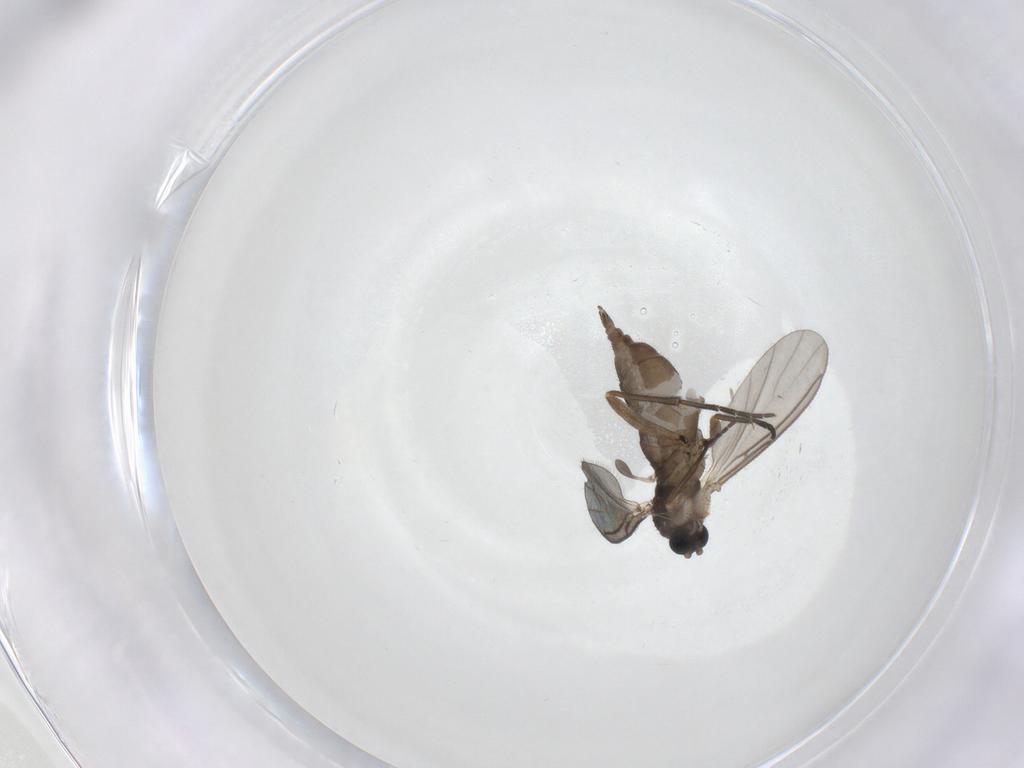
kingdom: Animalia
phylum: Arthropoda
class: Insecta
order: Diptera
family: Sciaridae
